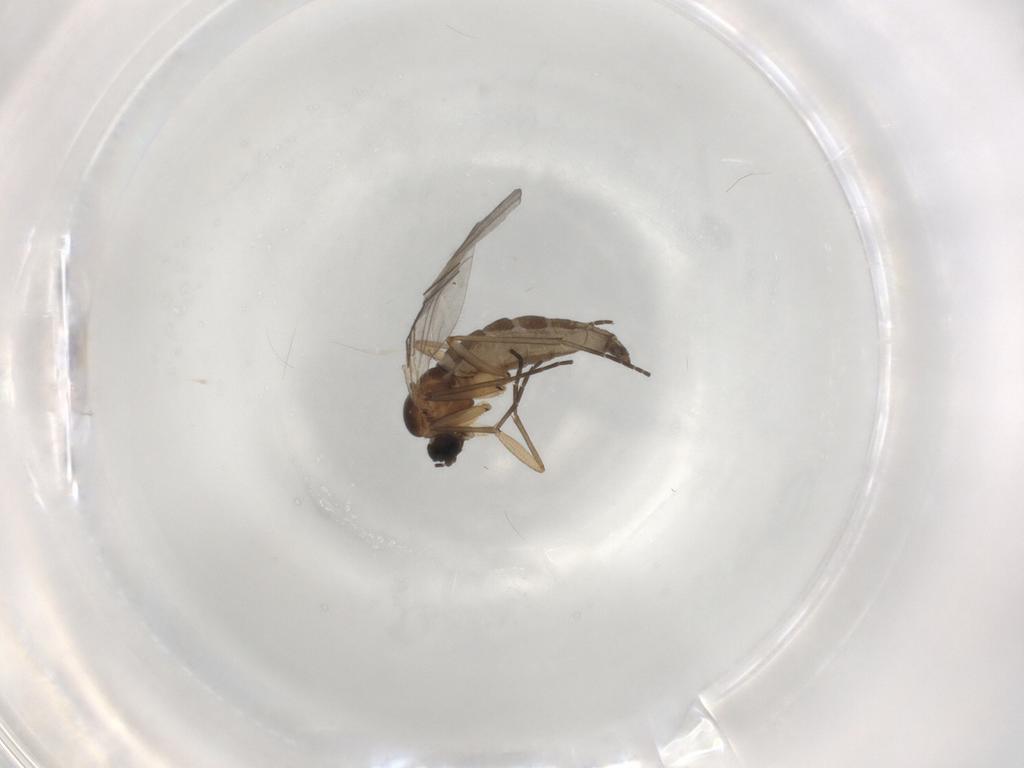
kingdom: Animalia
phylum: Arthropoda
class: Insecta
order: Diptera
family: Sciaridae
